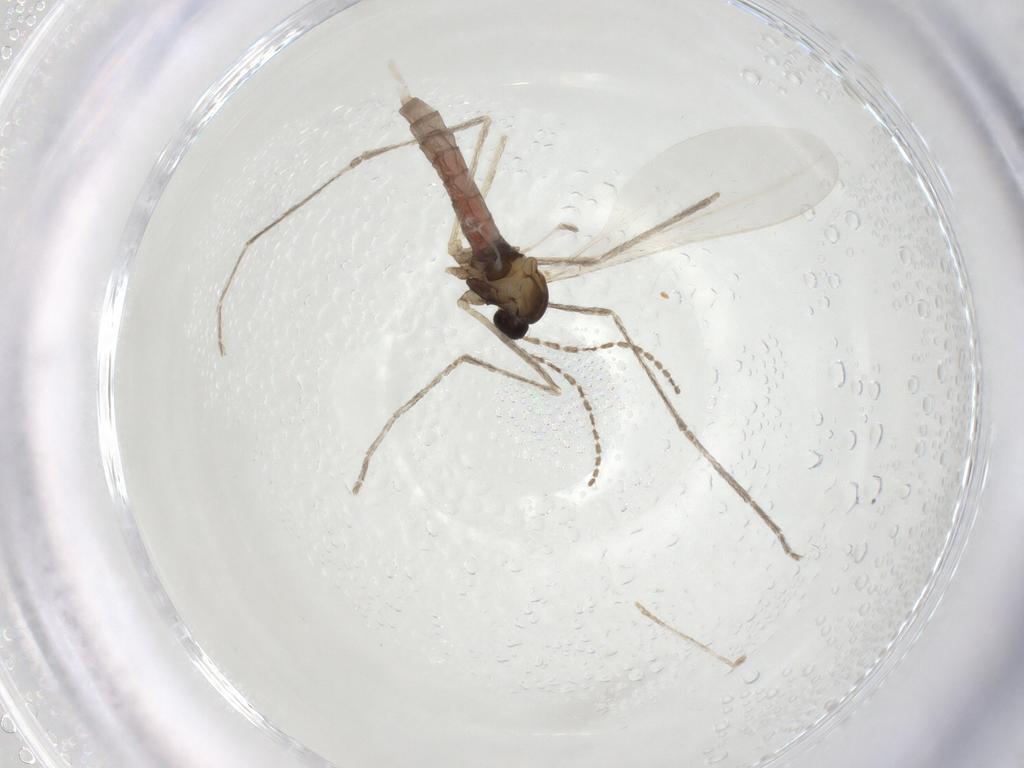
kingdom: Animalia
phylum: Arthropoda
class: Insecta
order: Diptera
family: Cecidomyiidae
